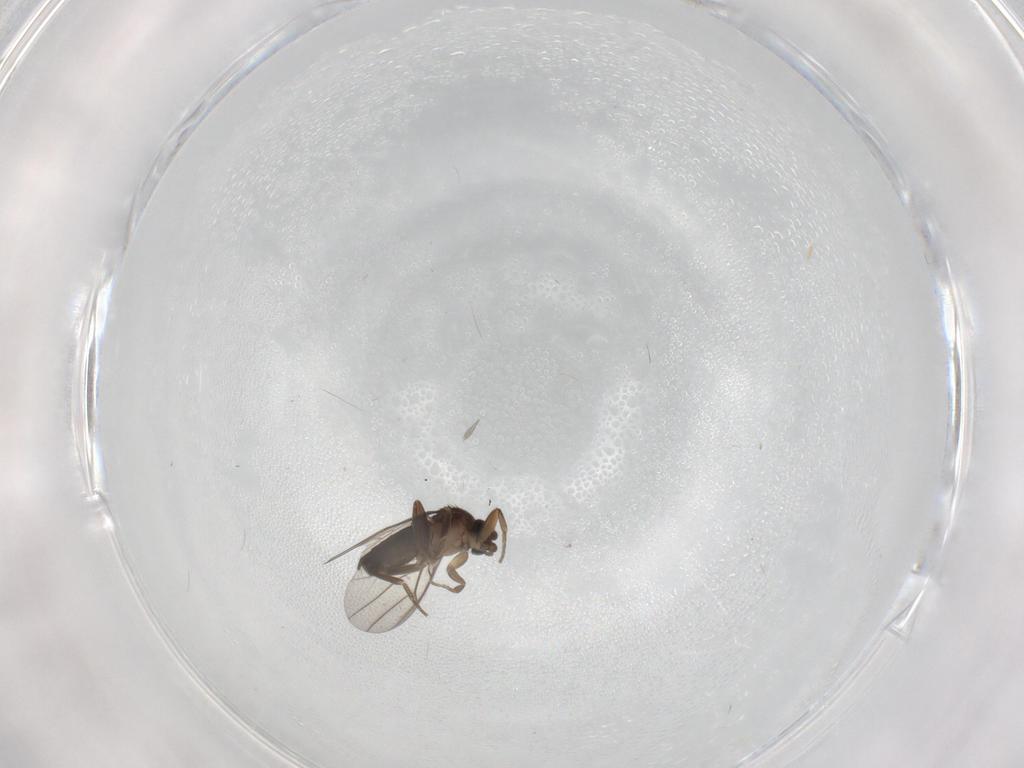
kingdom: Animalia
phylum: Arthropoda
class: Insecta
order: Diptera
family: Phoridae
